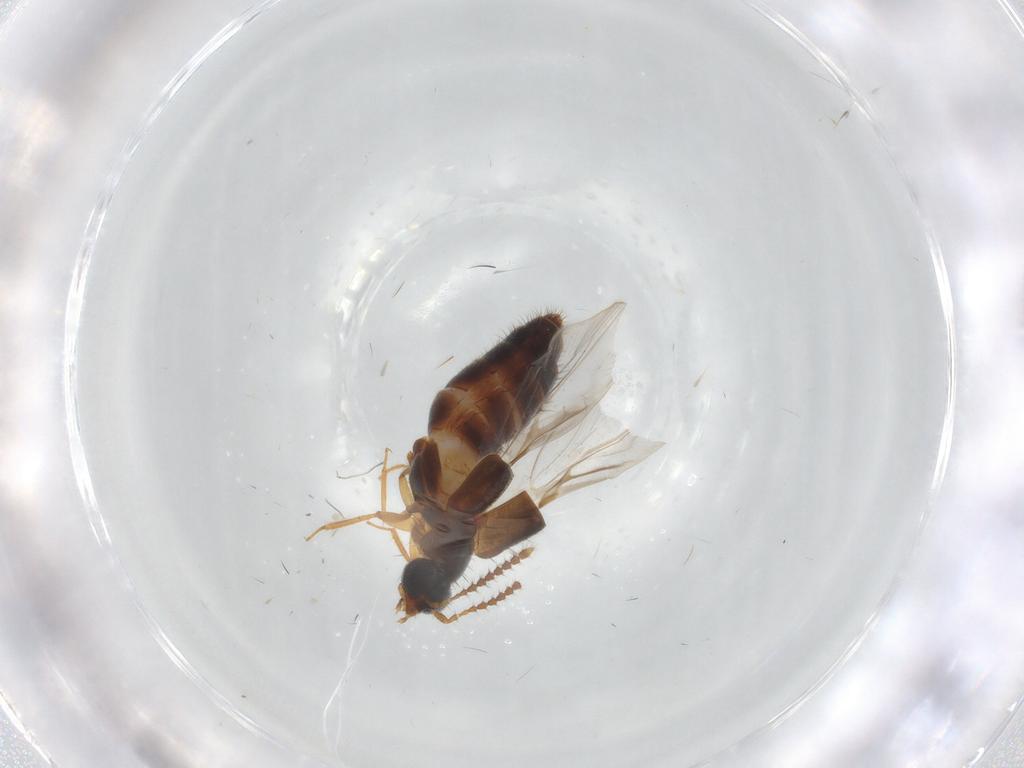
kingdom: Animalia
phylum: Arthropoda
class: Insecta
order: Coleoptera
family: Staphylinidae
